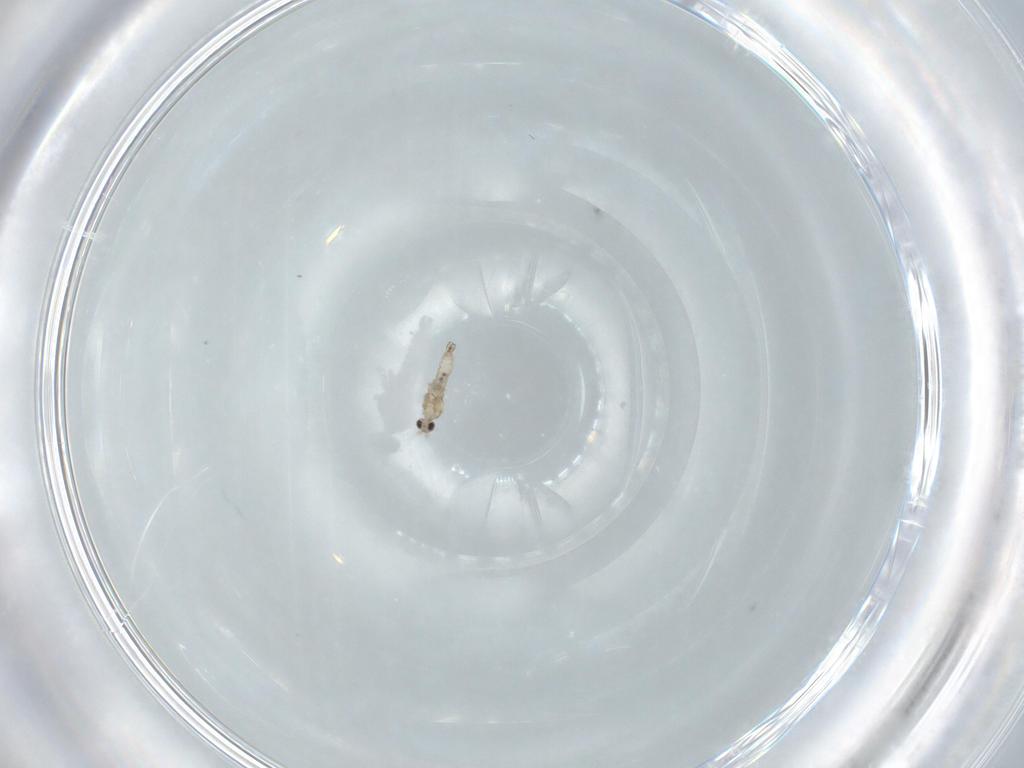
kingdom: Animalia
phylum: Arthropoda
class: Insecta
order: Diptera
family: Cecidomyiidae
